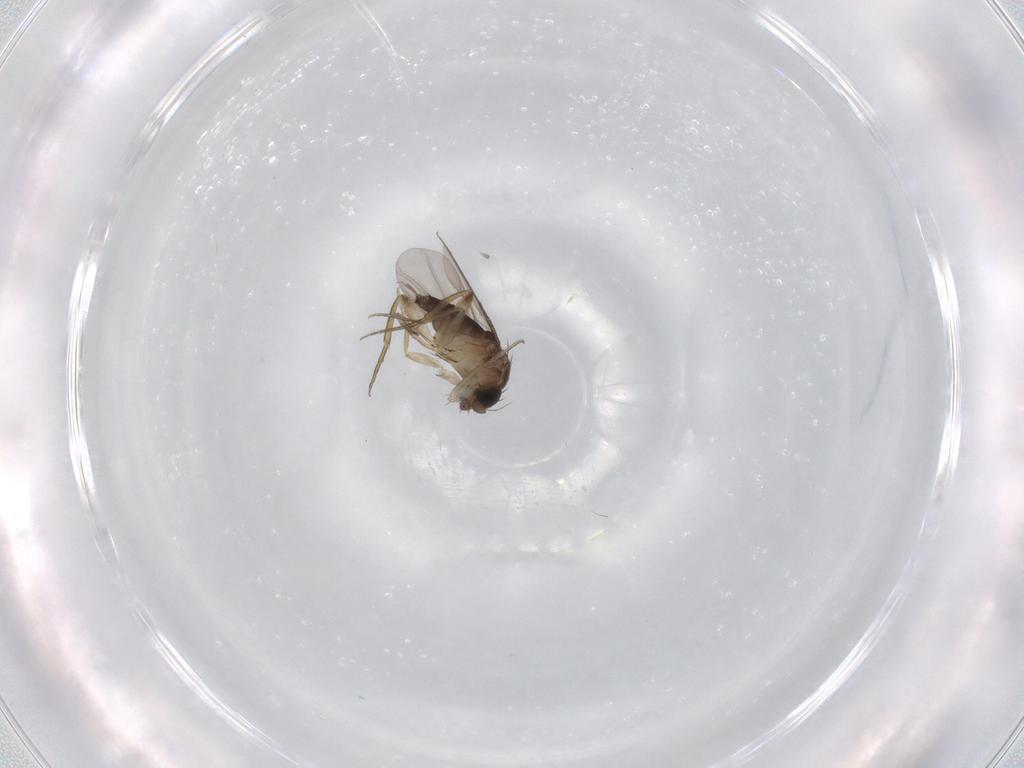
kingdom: Animalia
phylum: Arthropoda
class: Insecta
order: Diptera
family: Phoridae
